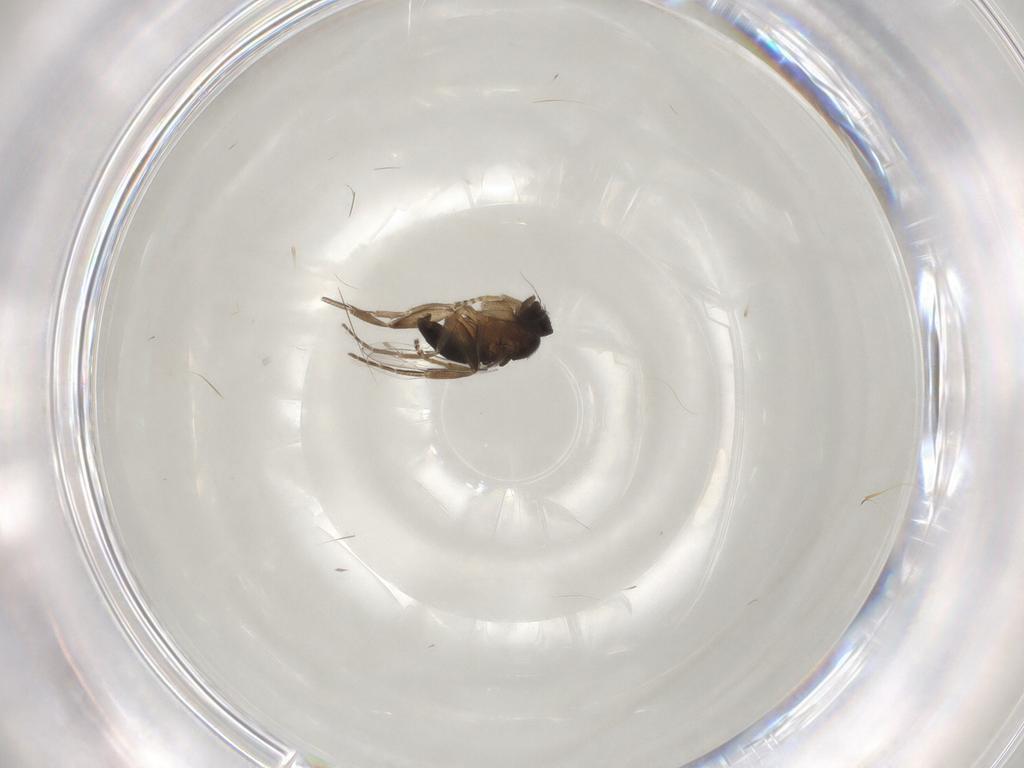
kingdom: Animalia
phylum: Arthropoda
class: Insecta
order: Diptera
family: Phoridae
